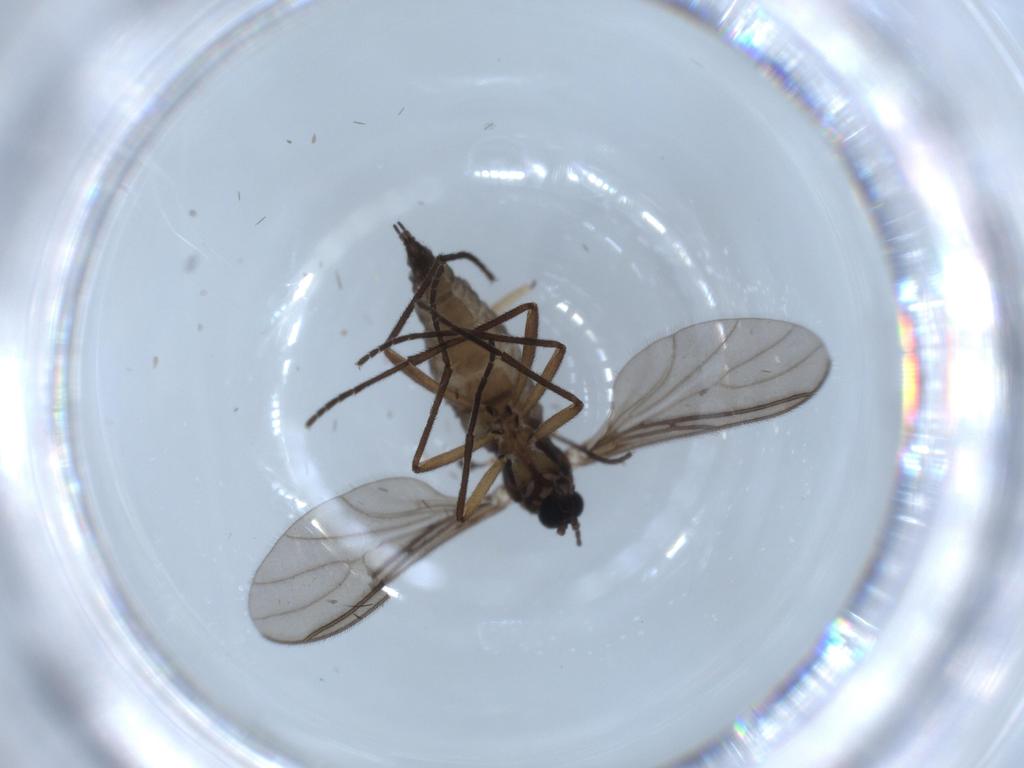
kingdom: Animalia
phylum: Arthropoda
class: Insecta
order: Diptera
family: Sciaridae
